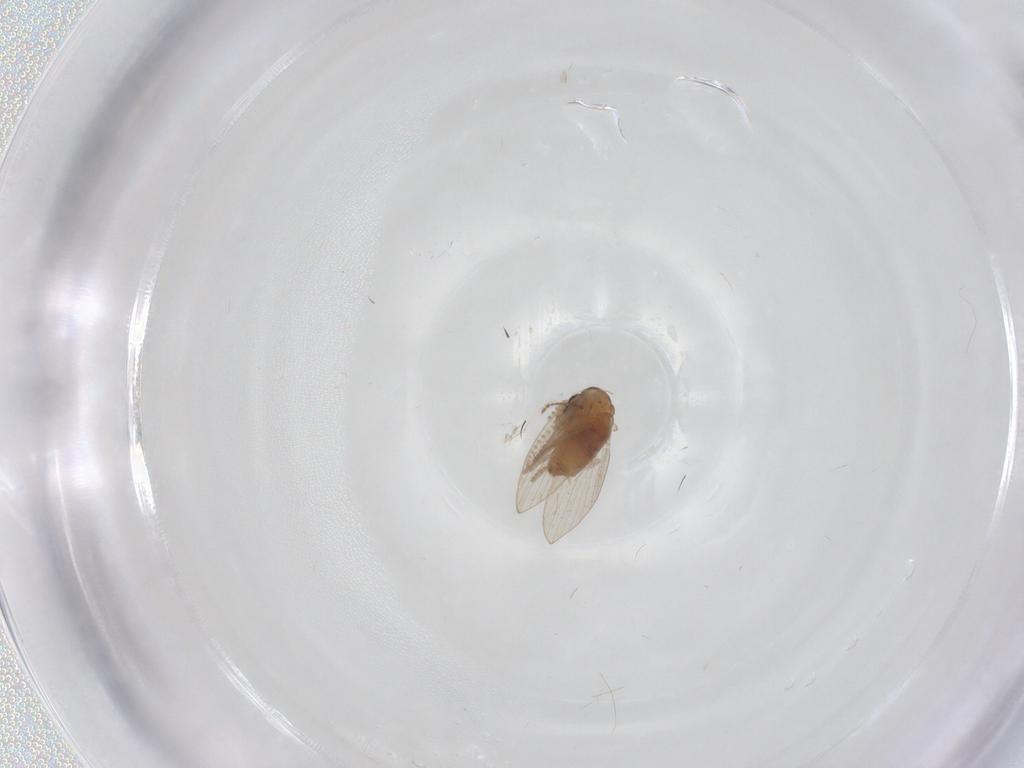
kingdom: Animalia
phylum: Arthropoda
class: Insecta
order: Diptera
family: Psychodidae
